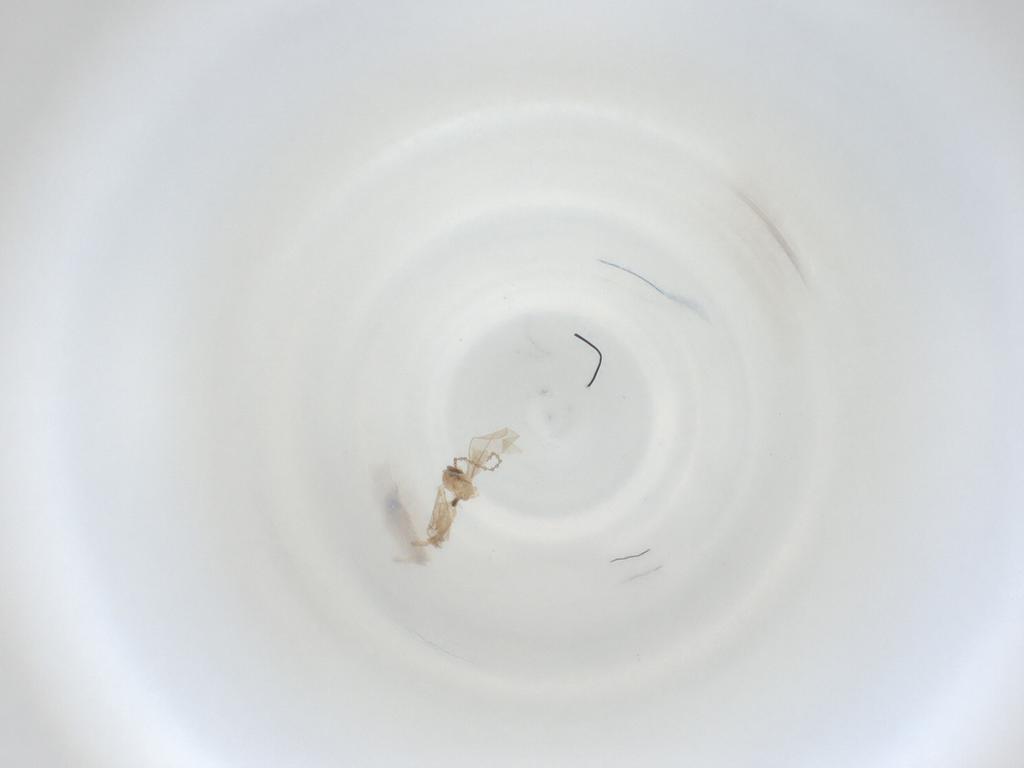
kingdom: Animalia
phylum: Arthropoda
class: Insecta
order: Diptera
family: Cecidomyiidae
